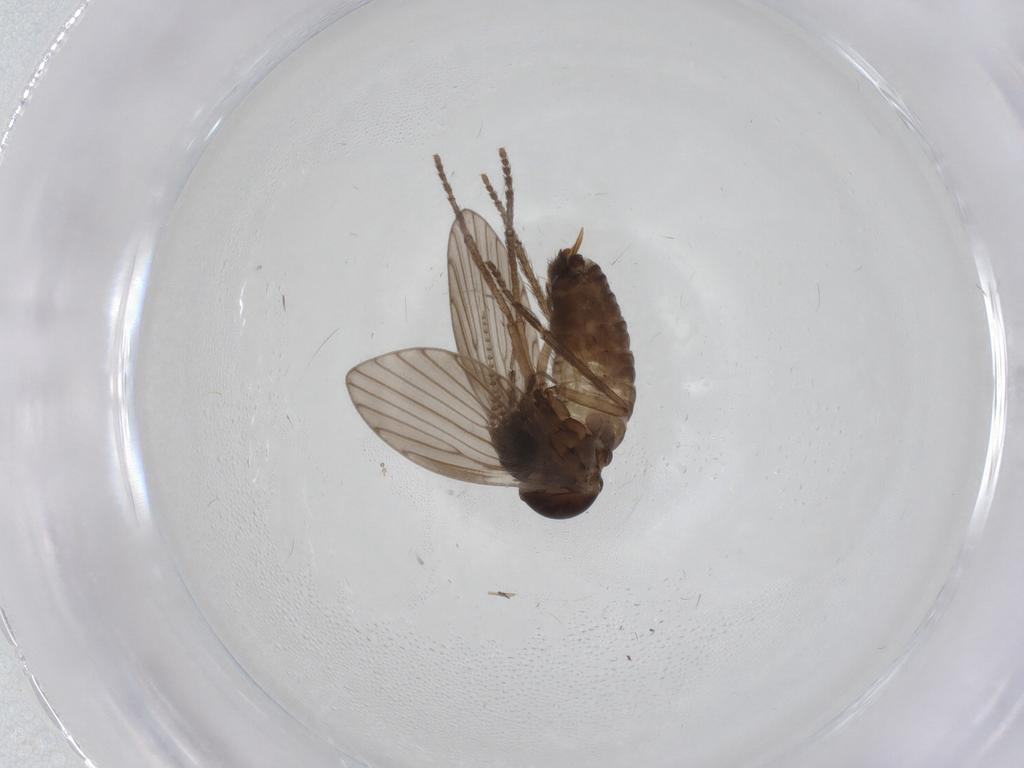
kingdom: Animalia
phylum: Arthropoda
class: Insecta
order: Diptera
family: Psychodidae
